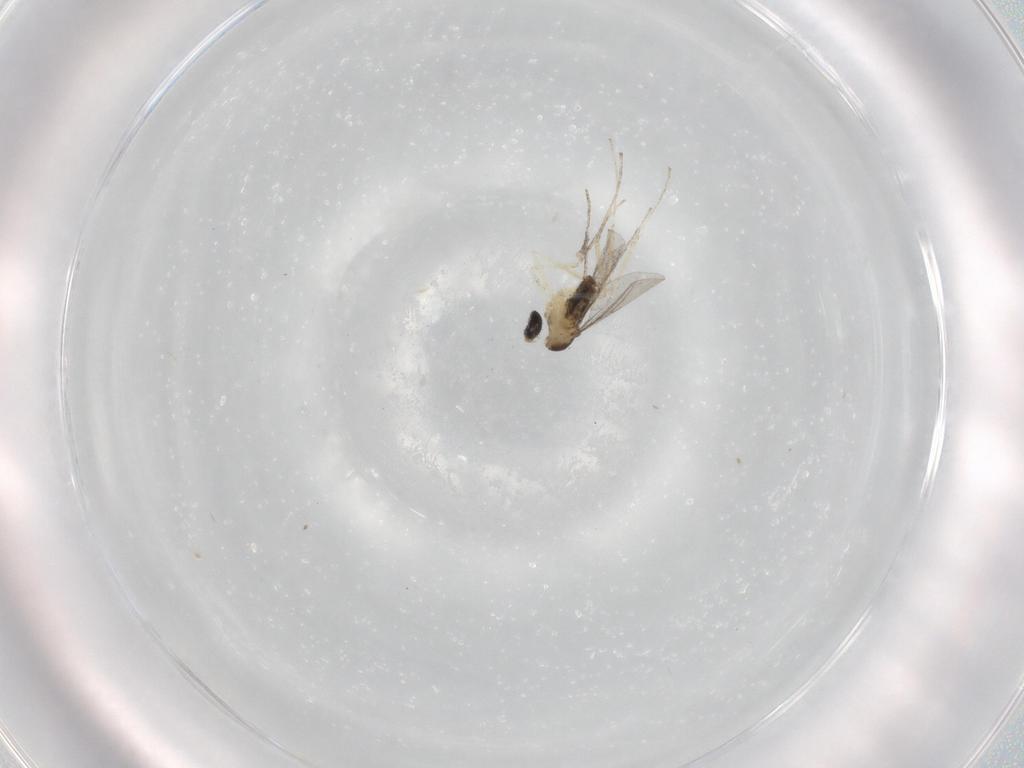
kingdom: Animalia
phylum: Arthropoda
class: Insecta
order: Diptera
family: Cecidomyiidae
